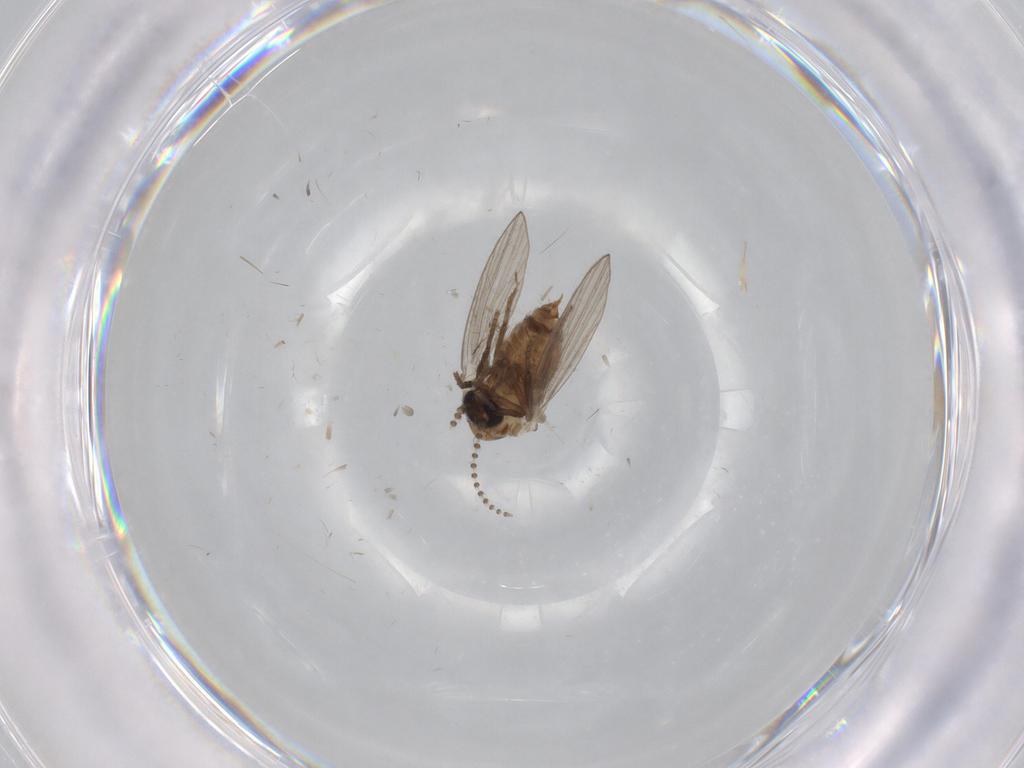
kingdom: Animalia
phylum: Arthropoda
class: Insecta
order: Diptera
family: Psychodidae
